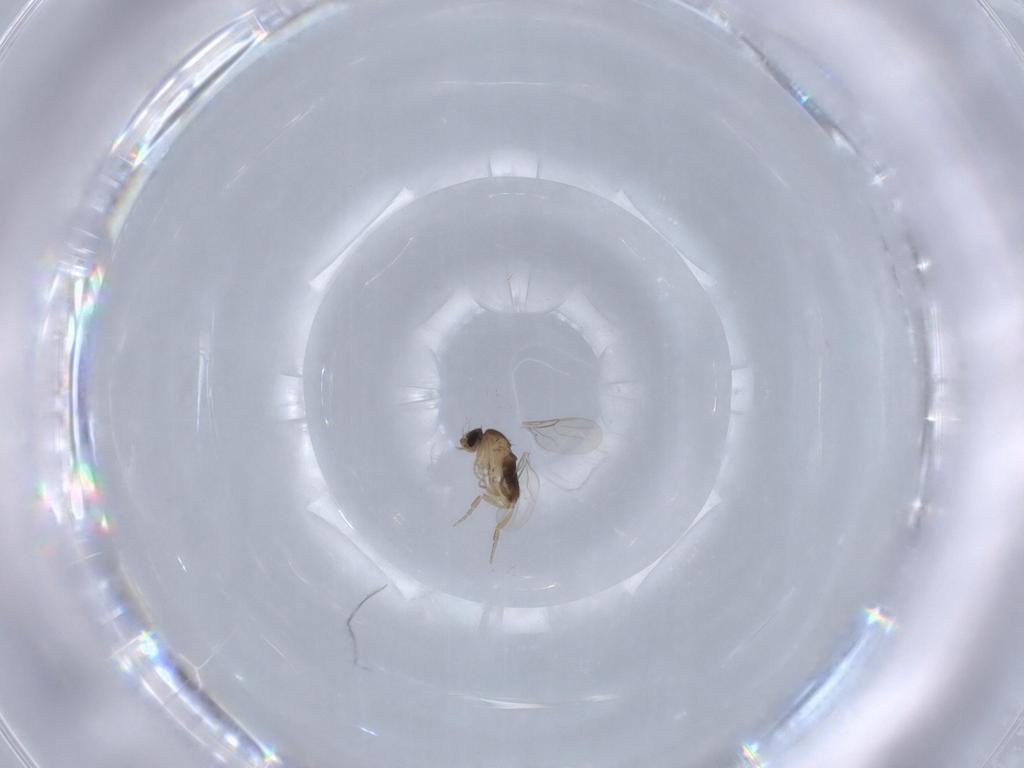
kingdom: Animalia
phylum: Arthropoda
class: Insecta
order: Diptera
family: Phoridae
